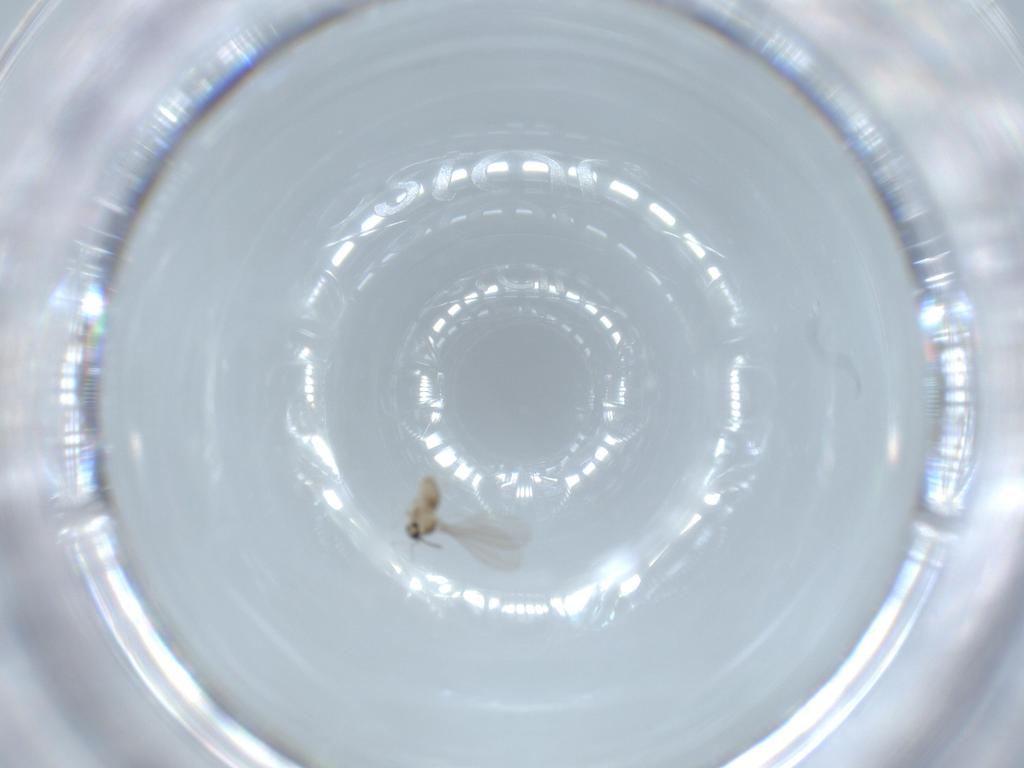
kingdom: Animalia
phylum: Arthropoda
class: Insecta
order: Diptera
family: Cecidomyiidae
